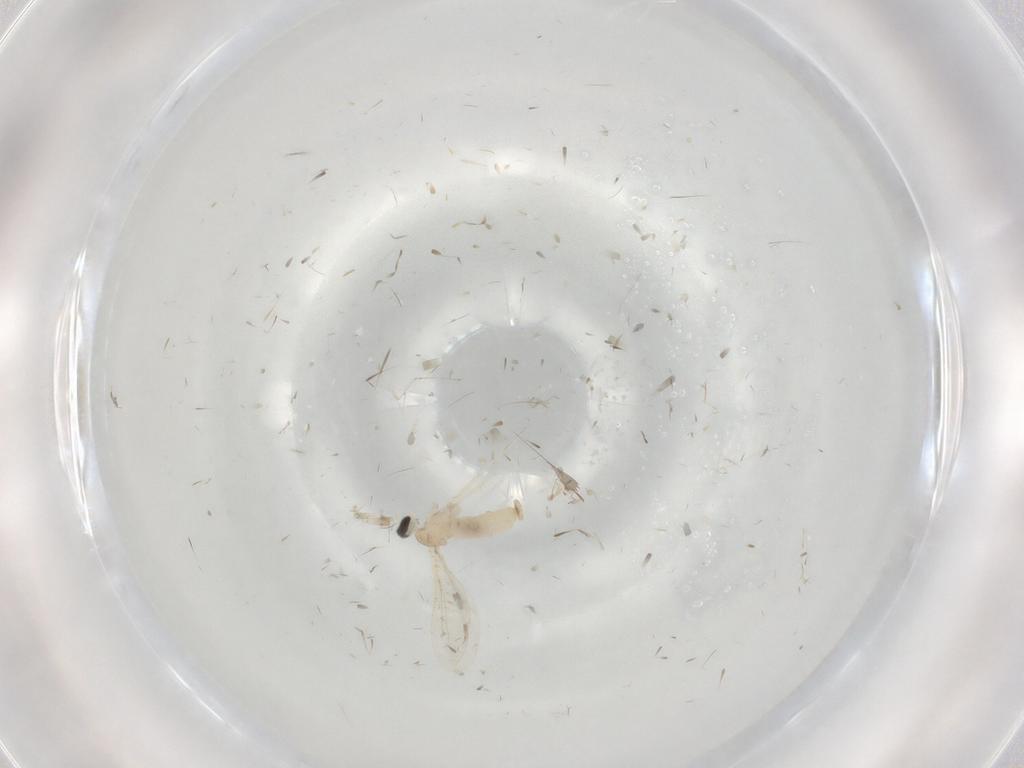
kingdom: Animalia
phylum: Arthropoda
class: Insecta
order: Diptera
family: Cecidomyiidae
